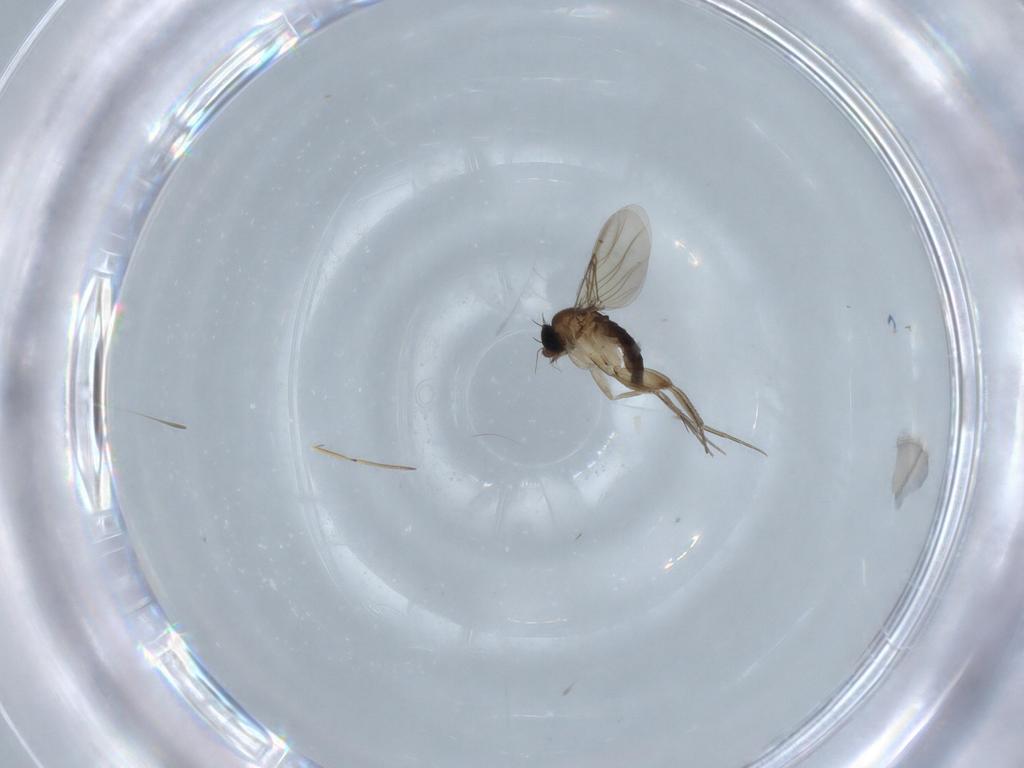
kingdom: Animalia
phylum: Arthropoda
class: Insecta
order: Diptera
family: Phoridae
